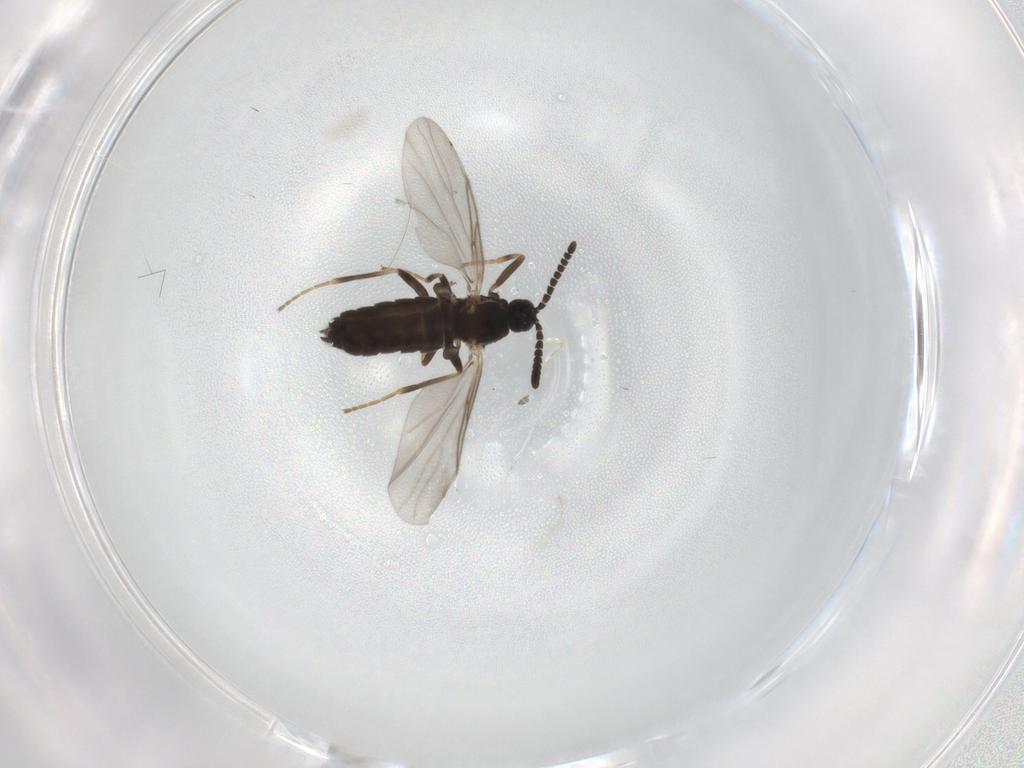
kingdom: Animalia
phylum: Arthropoda
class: Insecta
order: Diptera
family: Scatopsidae
